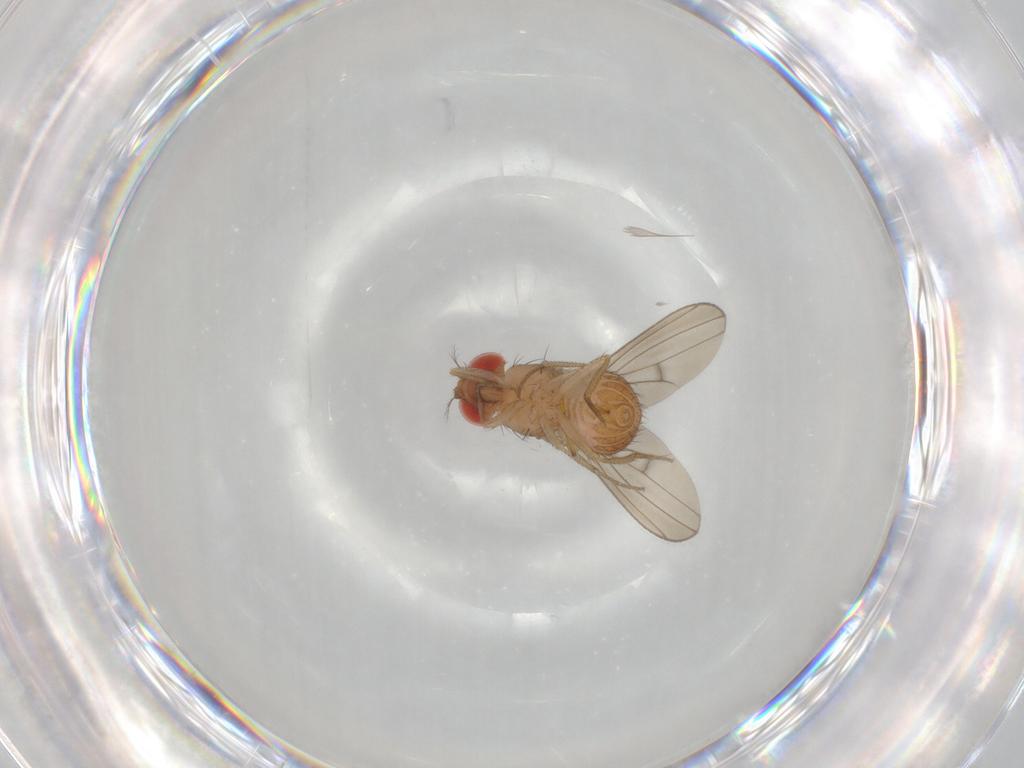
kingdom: Animalia
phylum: Arthropoda
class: Insecta
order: Diptera
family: Drosophilidae
